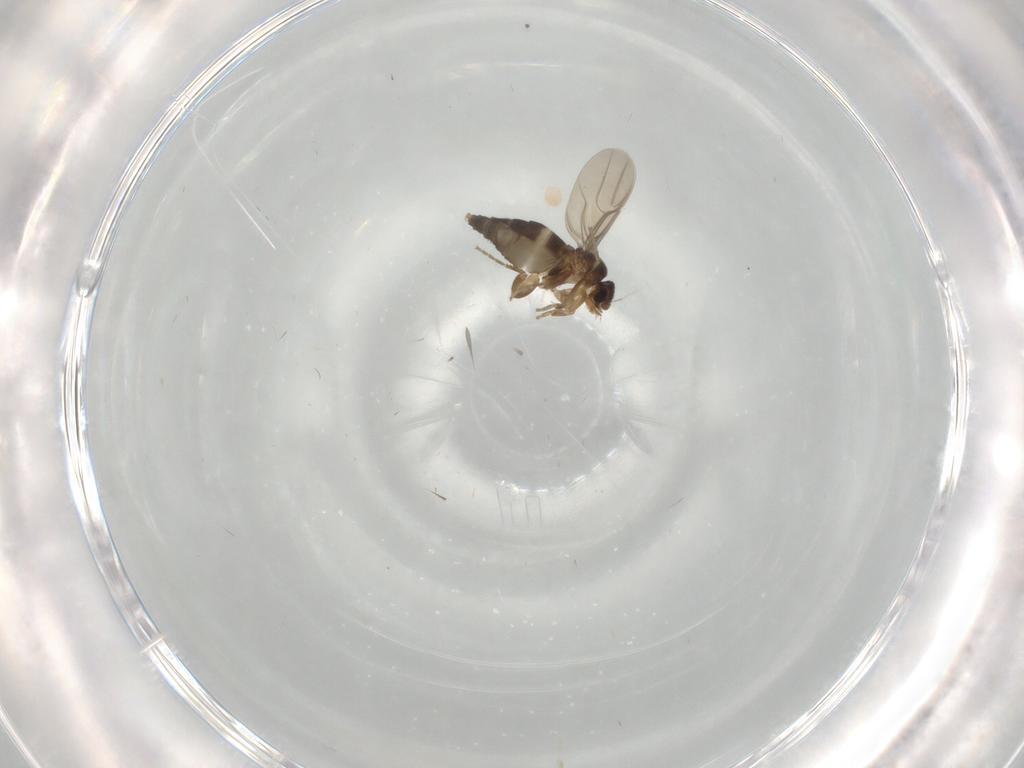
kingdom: Animalia
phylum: Arthropoda
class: Insecta
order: Diptera
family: Phoridae
